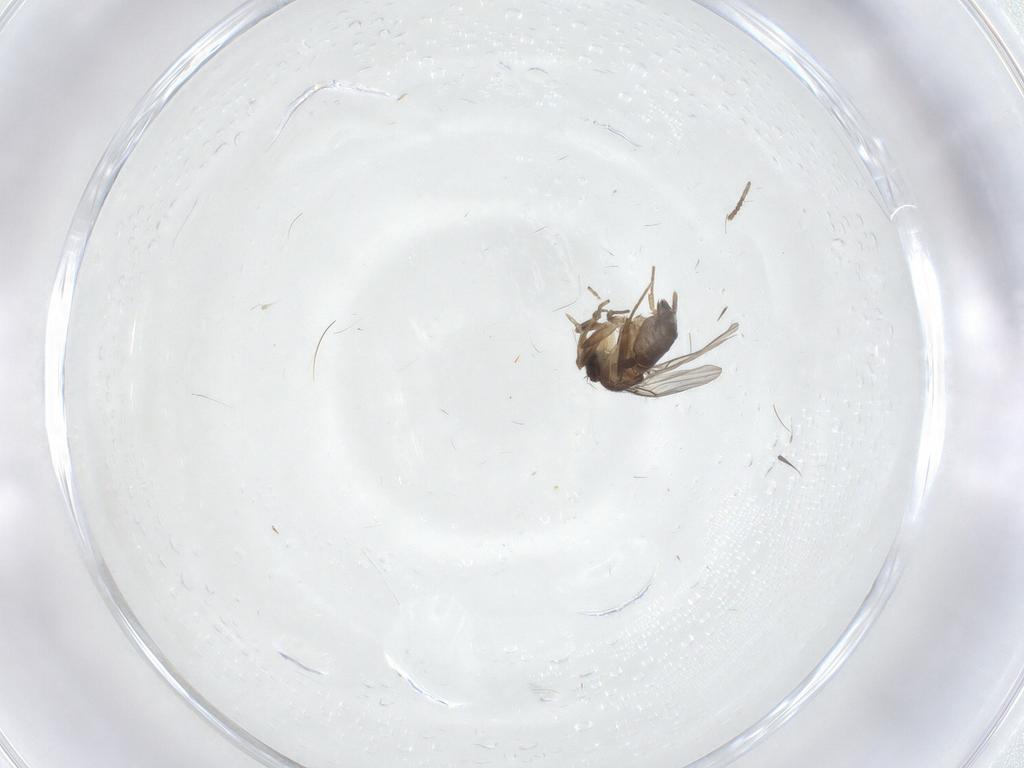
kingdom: Animalia
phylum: Arthropoda
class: Insecta
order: Diptera
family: Phoridae
